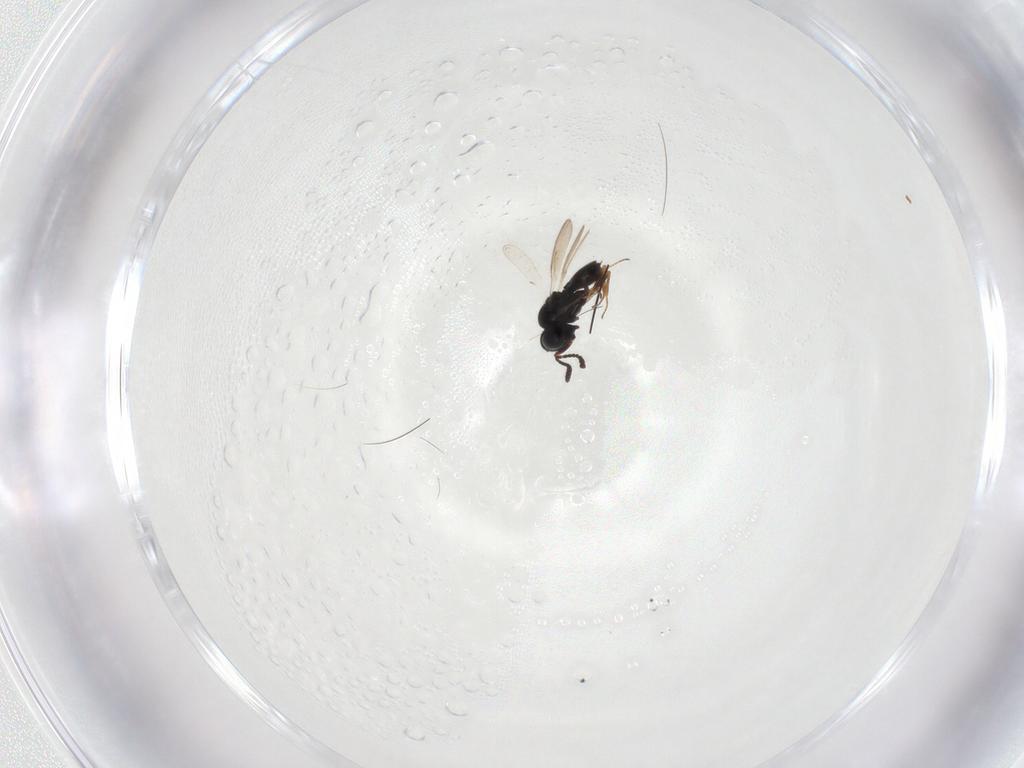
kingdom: Animalia
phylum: Arthropoda
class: Insecta
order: Hymenoptera
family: Scelionidae
